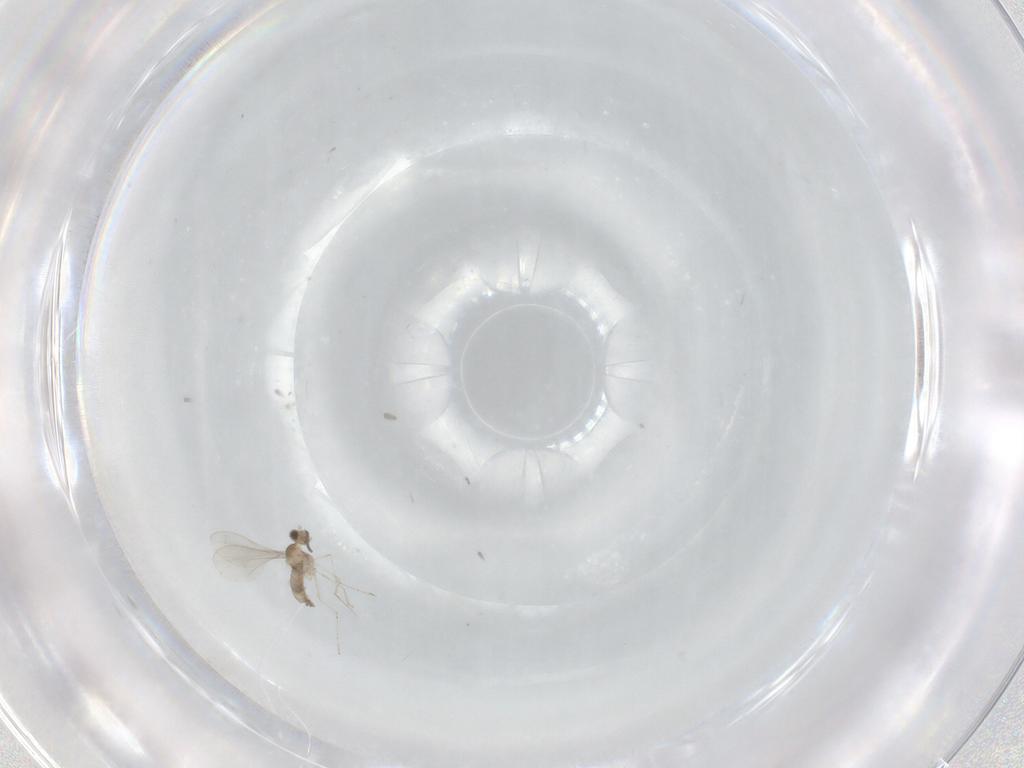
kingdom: Animalia
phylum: Arthropoda
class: Insecta
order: Diptera
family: Cecidomyiidae
